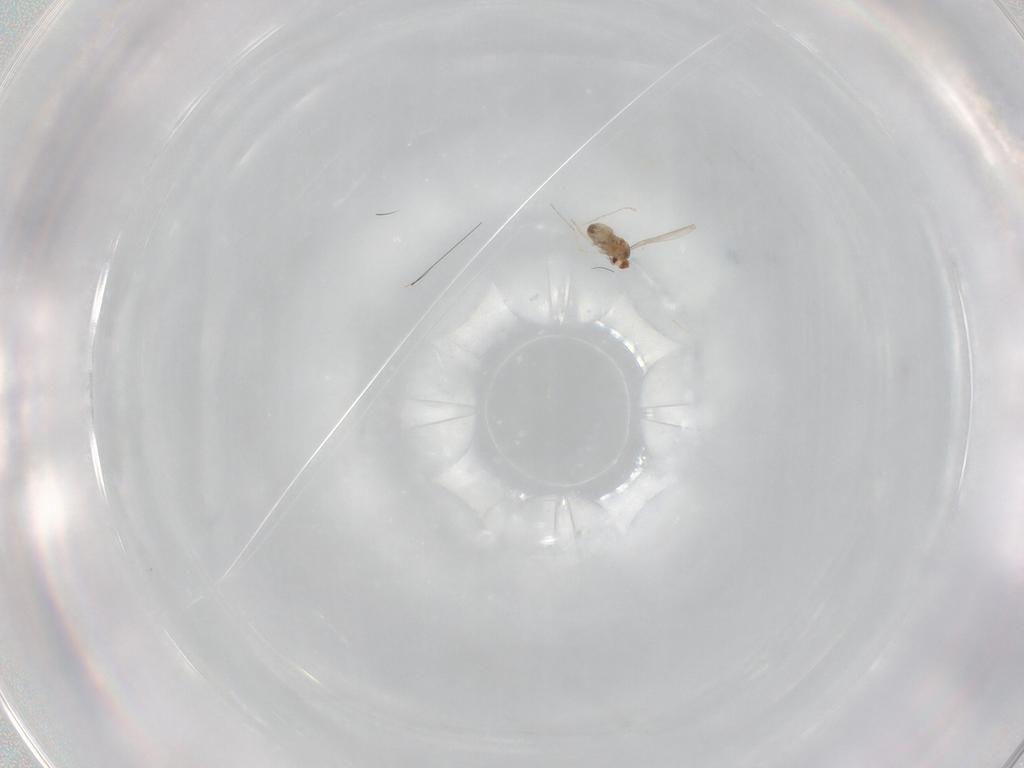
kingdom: Animalia
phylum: Arthropoda
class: Insecta
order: Diptera
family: Cecidomyiidae
